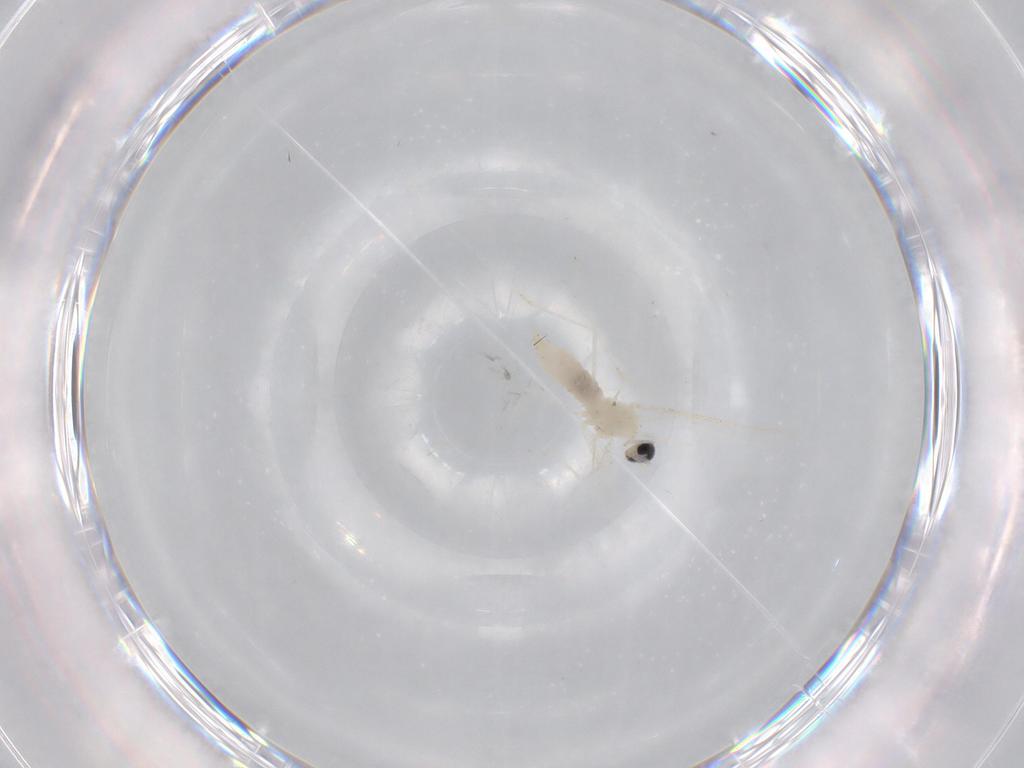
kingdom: Animalia
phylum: Arthropoda
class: Insecta
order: Diptera
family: Cecidomyiidae
